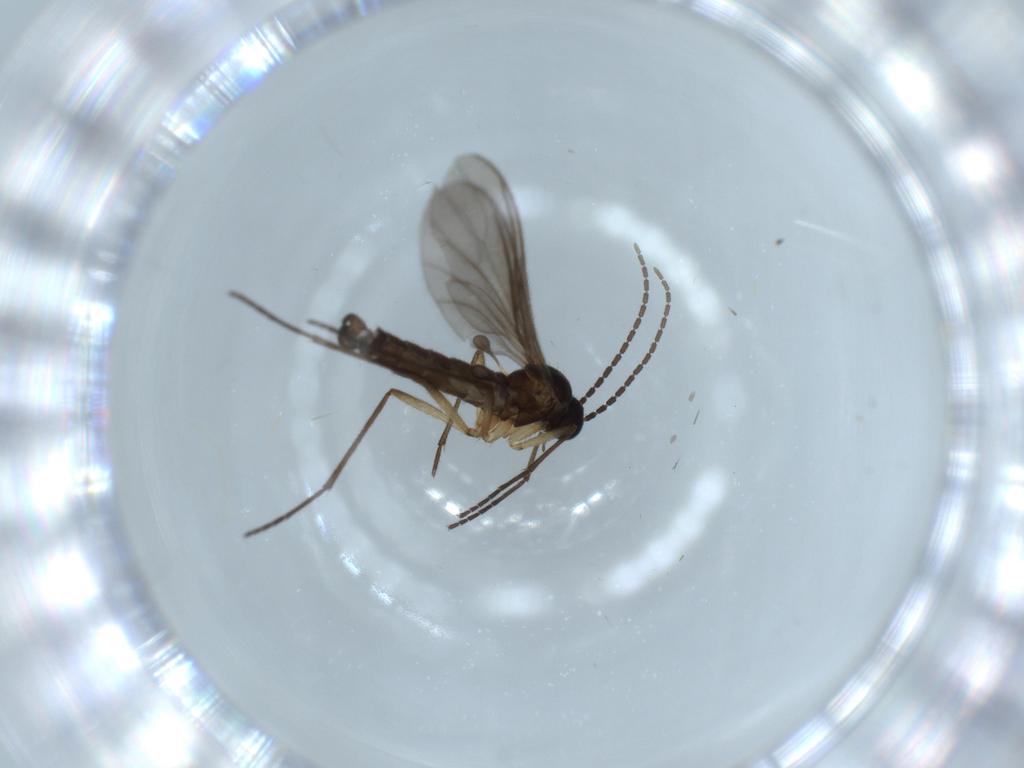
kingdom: Animalia
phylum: Arthropoda
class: Insecta
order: Diptera
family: Sciaridae
